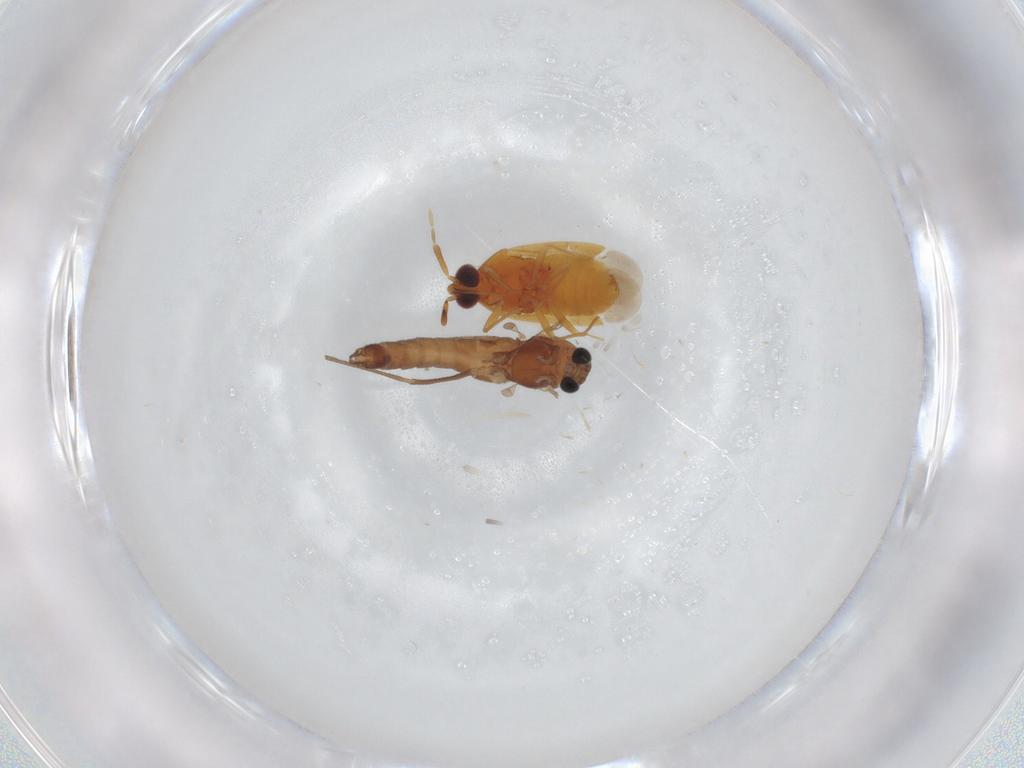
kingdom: Animalia
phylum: Arthropoda
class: Insecta
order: Diptera
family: Chironomidae
